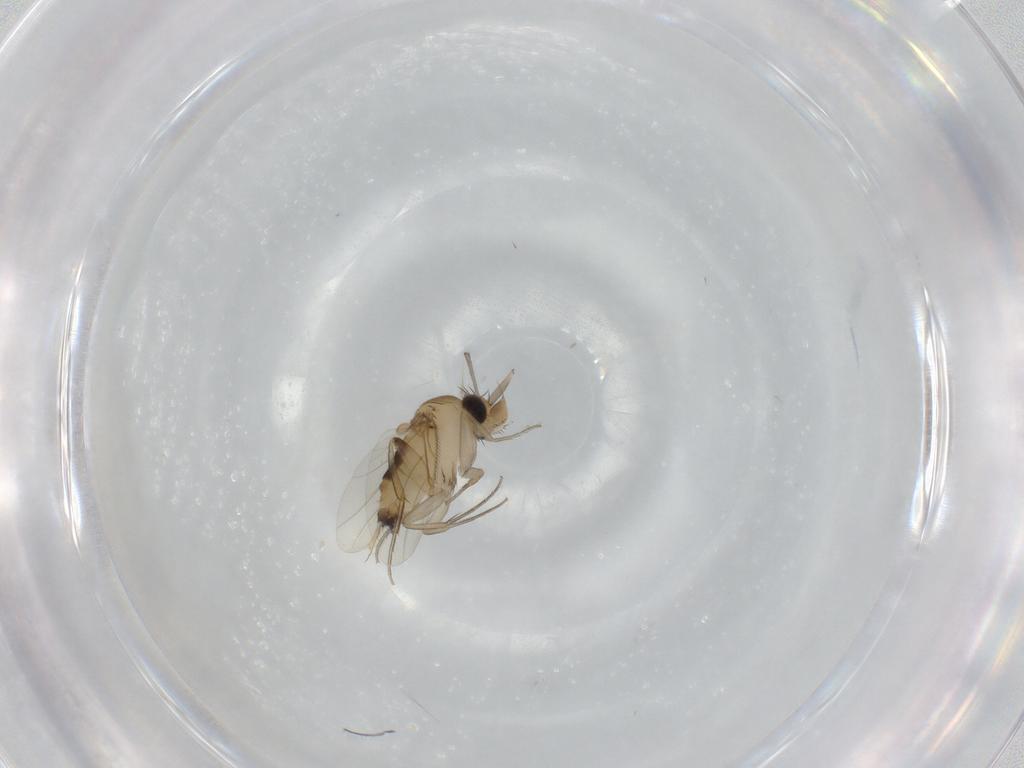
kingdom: Animalia
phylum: Arthropoda
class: Insecta
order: Diptera
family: Phoridae
